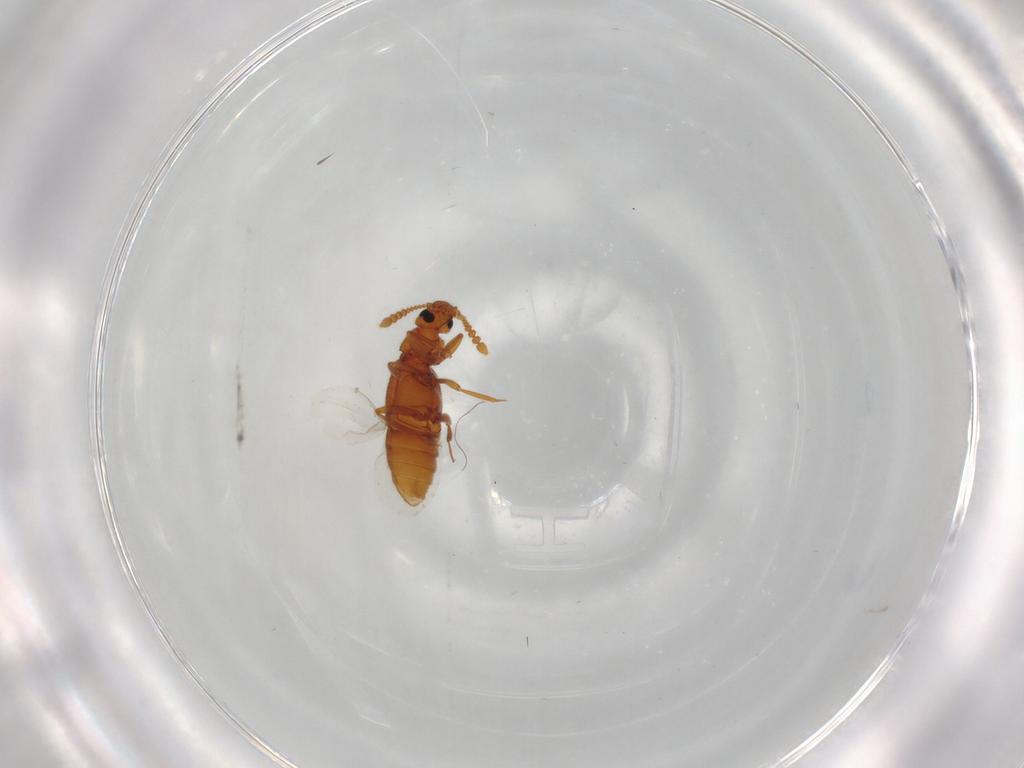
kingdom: Animalia
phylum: Arthropoda
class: Insecta
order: Coleoptera
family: Staphylinidae
